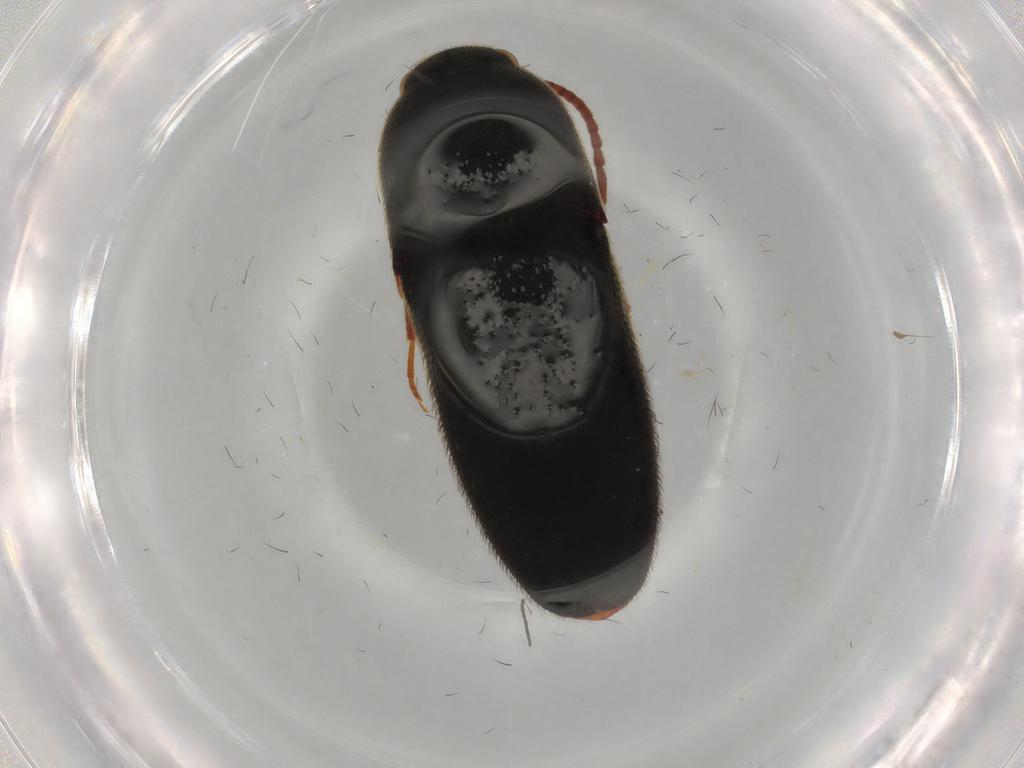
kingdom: Animalia
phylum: Arthropoda
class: Insecta
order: Coleoptera
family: Eucnemidae
